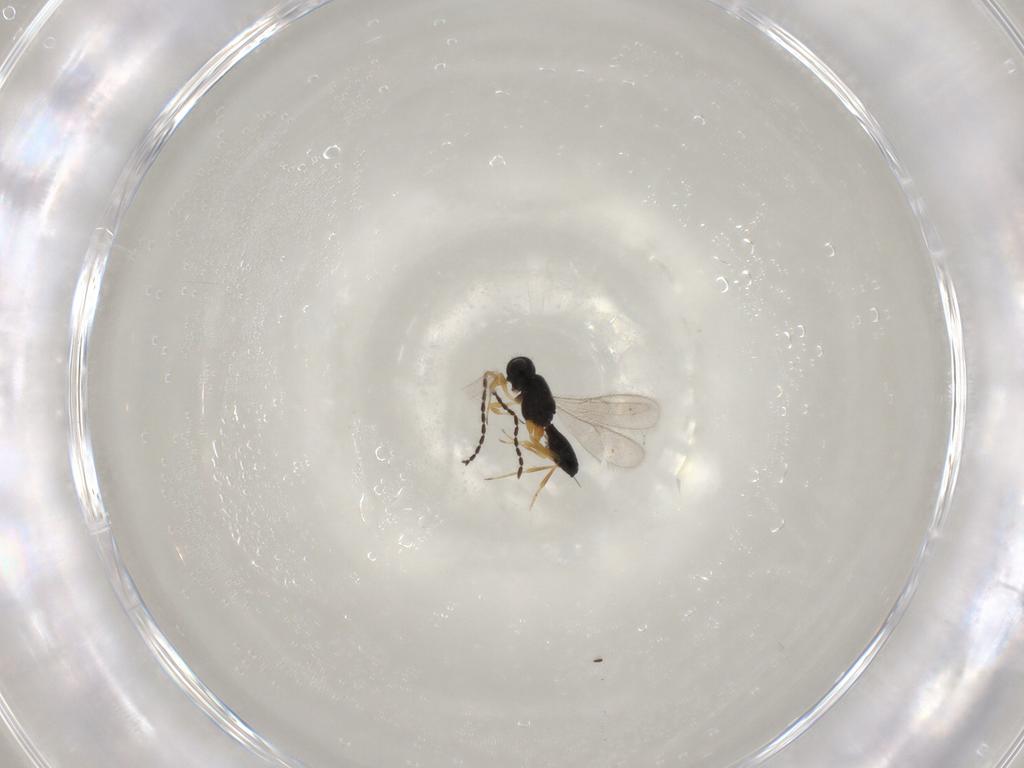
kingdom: Animalia
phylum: Arthropoda
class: Insecta
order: Hymenoptera
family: Scelionidae
